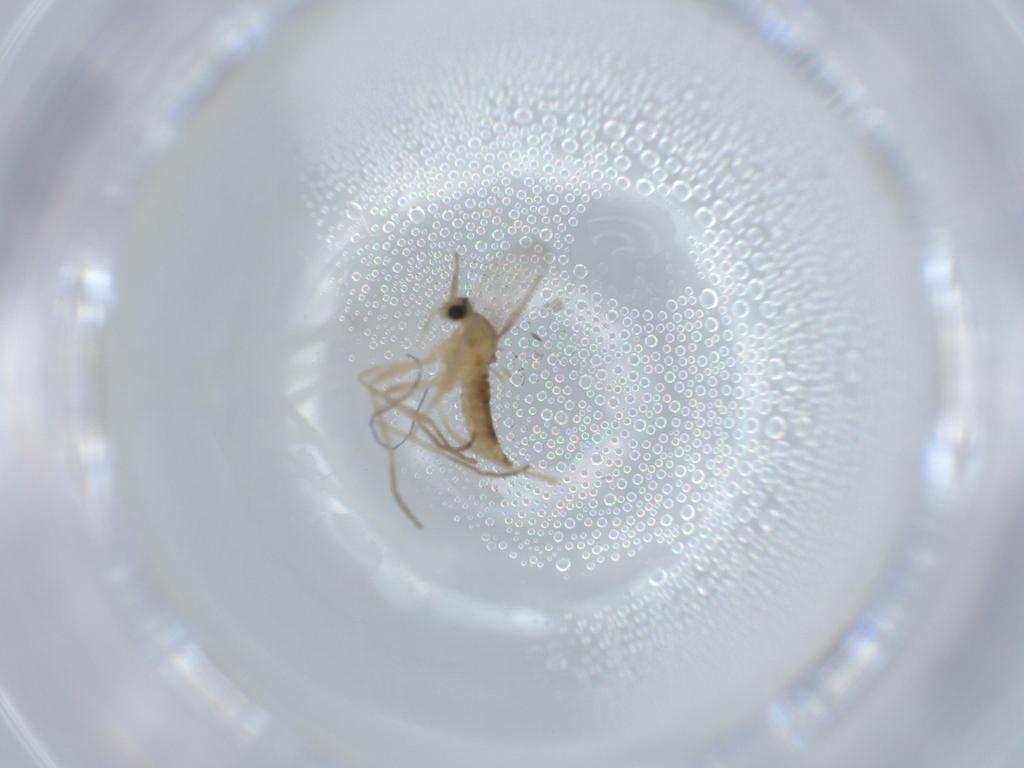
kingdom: Animalia
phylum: Arthropoda
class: Insecta
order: Diptera
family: Cecidomyiidae
